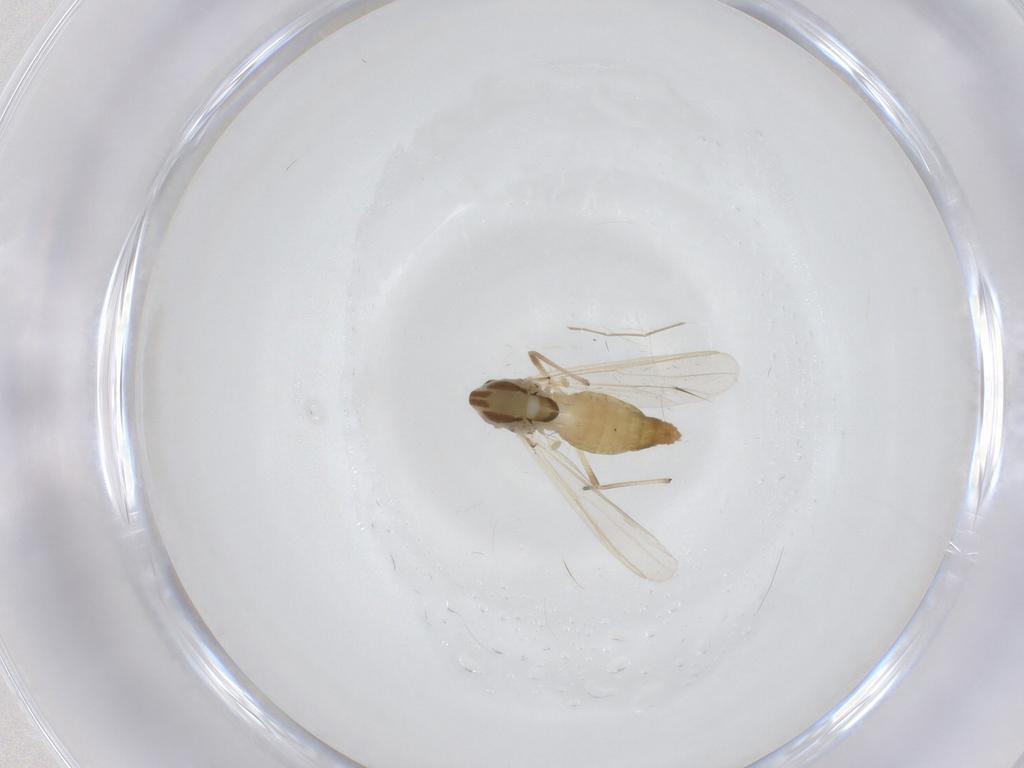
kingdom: Animalia
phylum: Arthropoda
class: Insecta
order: Diptera
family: Chironomidae
